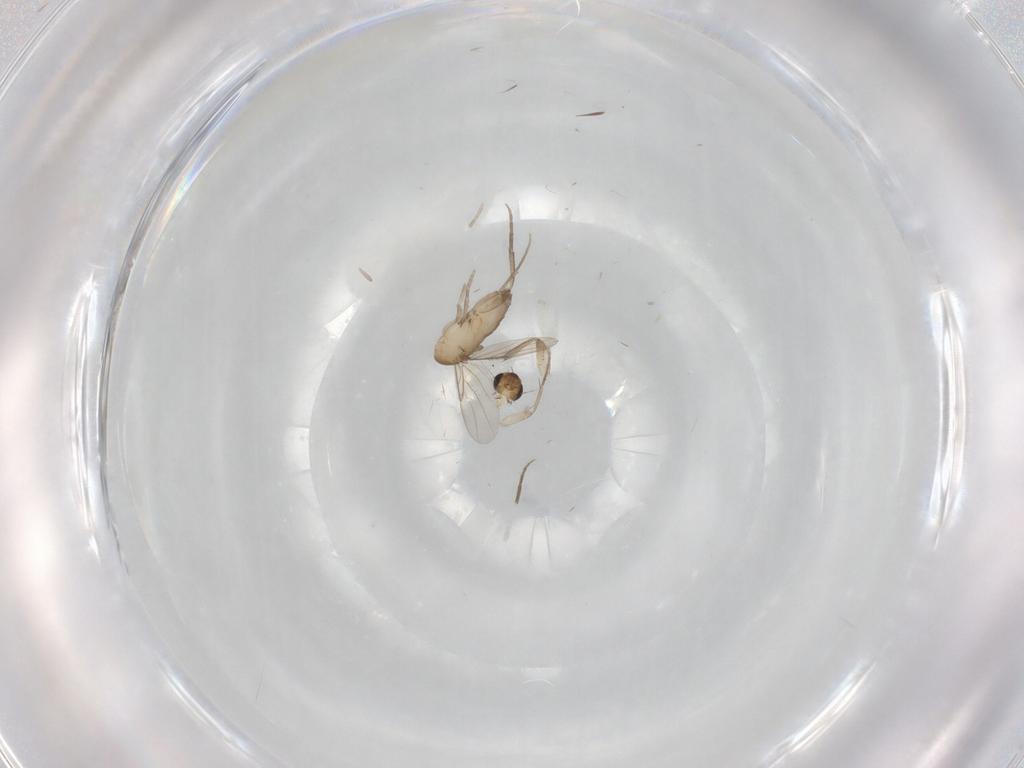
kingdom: Animalia
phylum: Arthropoda
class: Insecta
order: Diptera
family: Phoridae
